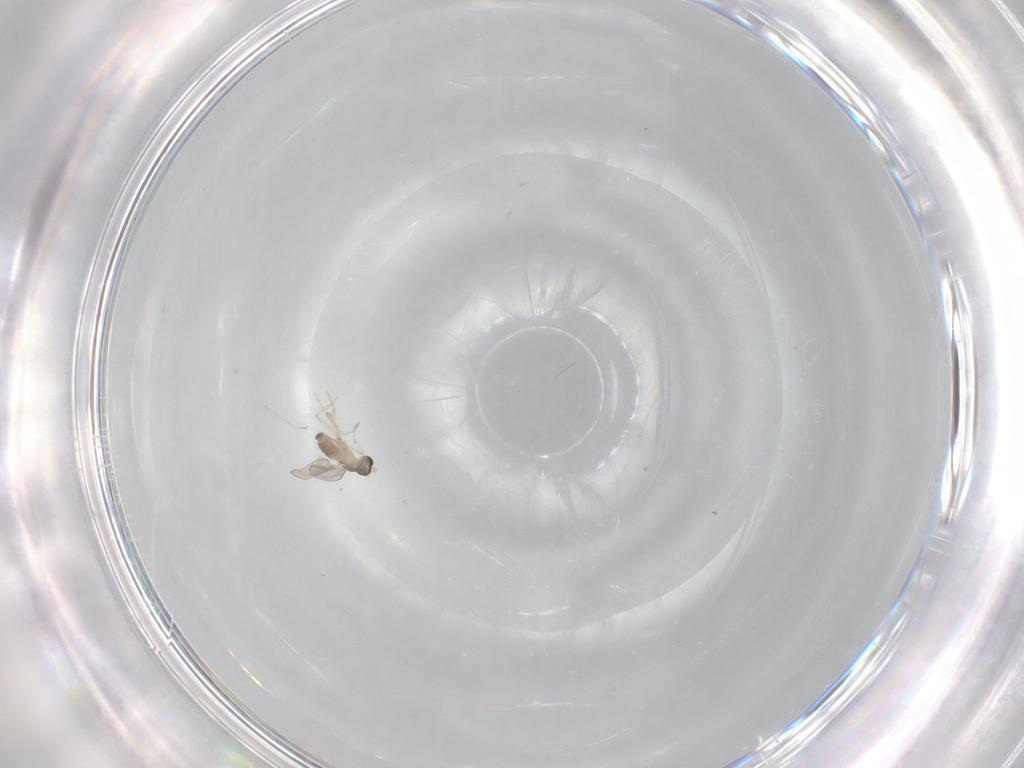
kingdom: Animalia
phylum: Arthropoda
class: Insecta
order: Diptera
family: Cecidomyiidae
